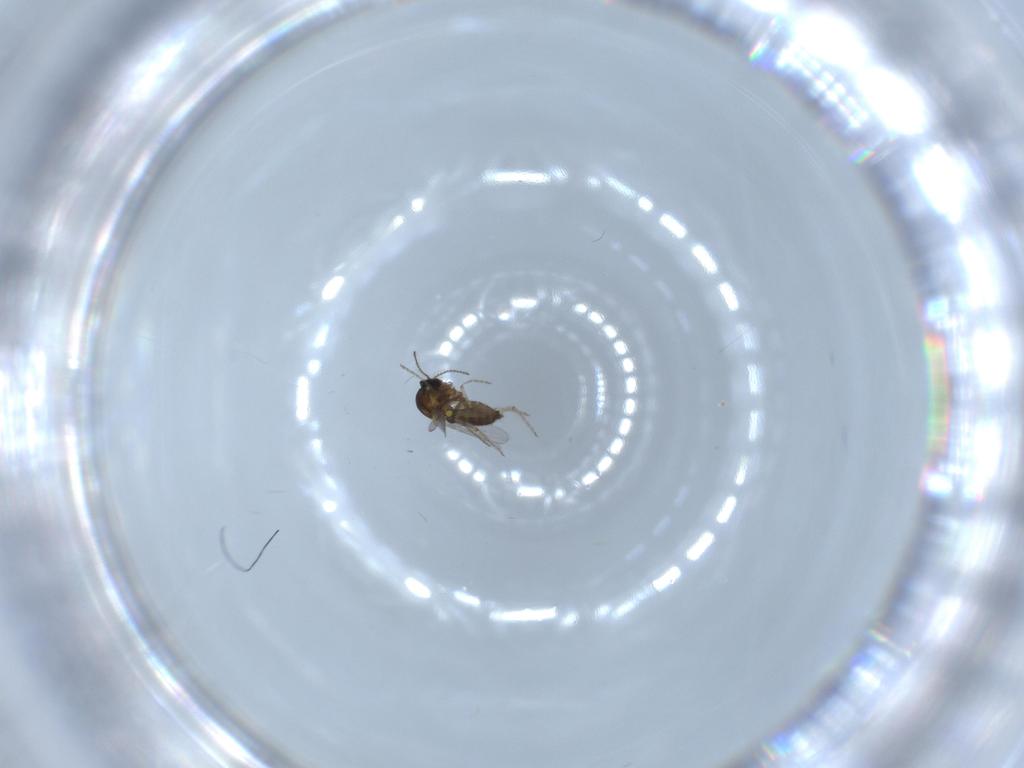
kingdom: Animalia
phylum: Arthropoda
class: Insecta
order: Diptera
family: Ceratopogonidae
